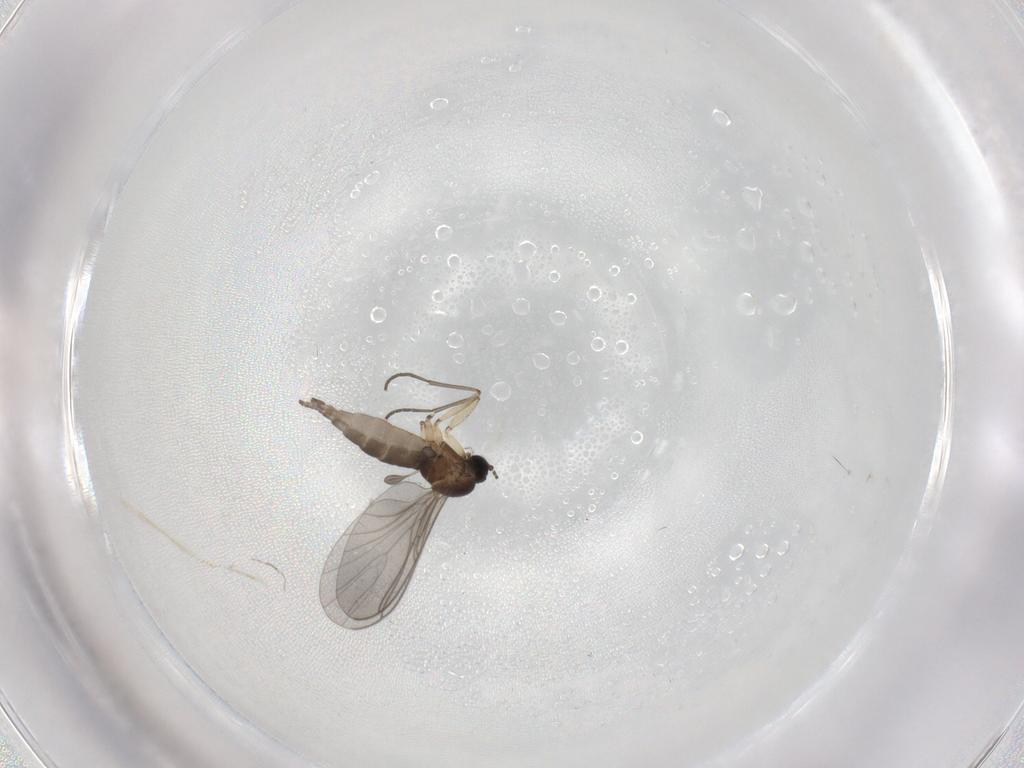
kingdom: Animalia
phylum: Arthropoda
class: Insecta
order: Diptera
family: Sciaridae
